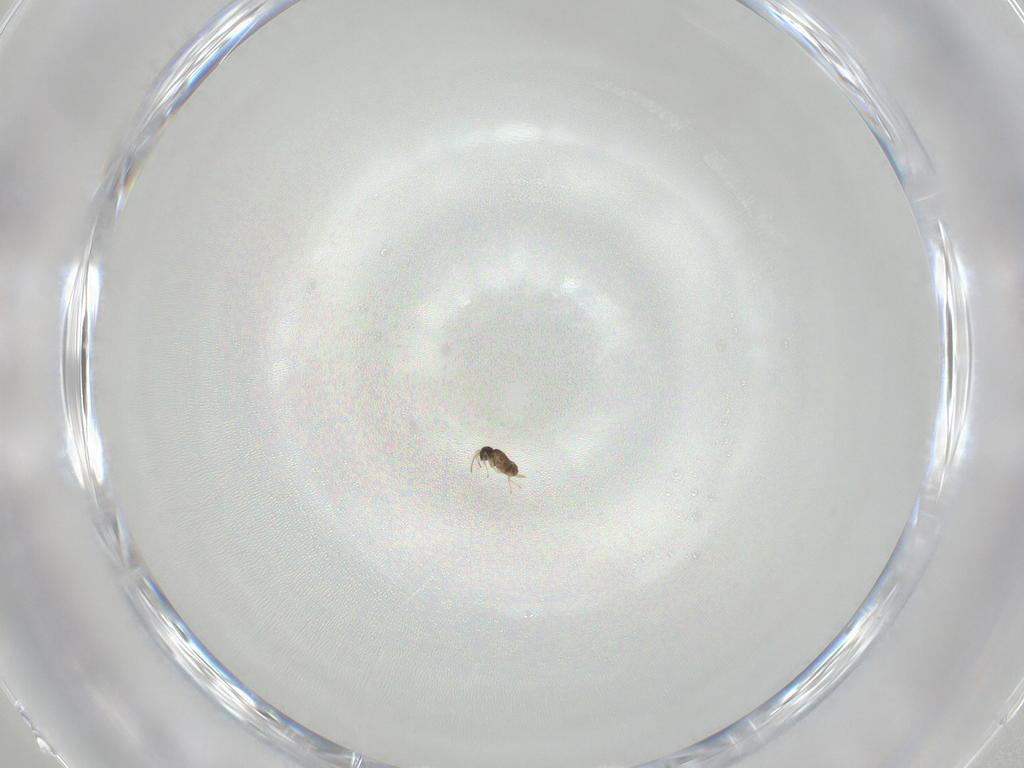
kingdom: Animalia
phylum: Arthropoda
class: Insecta
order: Hymenoptera
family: Mymaridae
